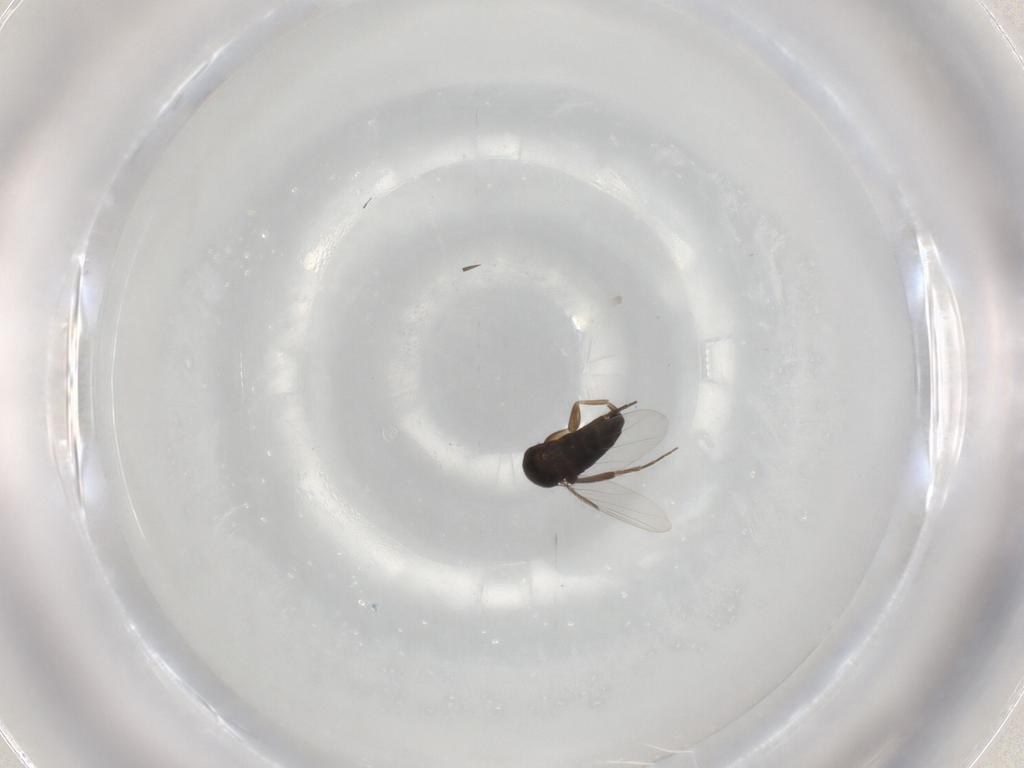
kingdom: Animalia
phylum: Arthropoda
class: Insecta
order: Diptera
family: Phoridae
